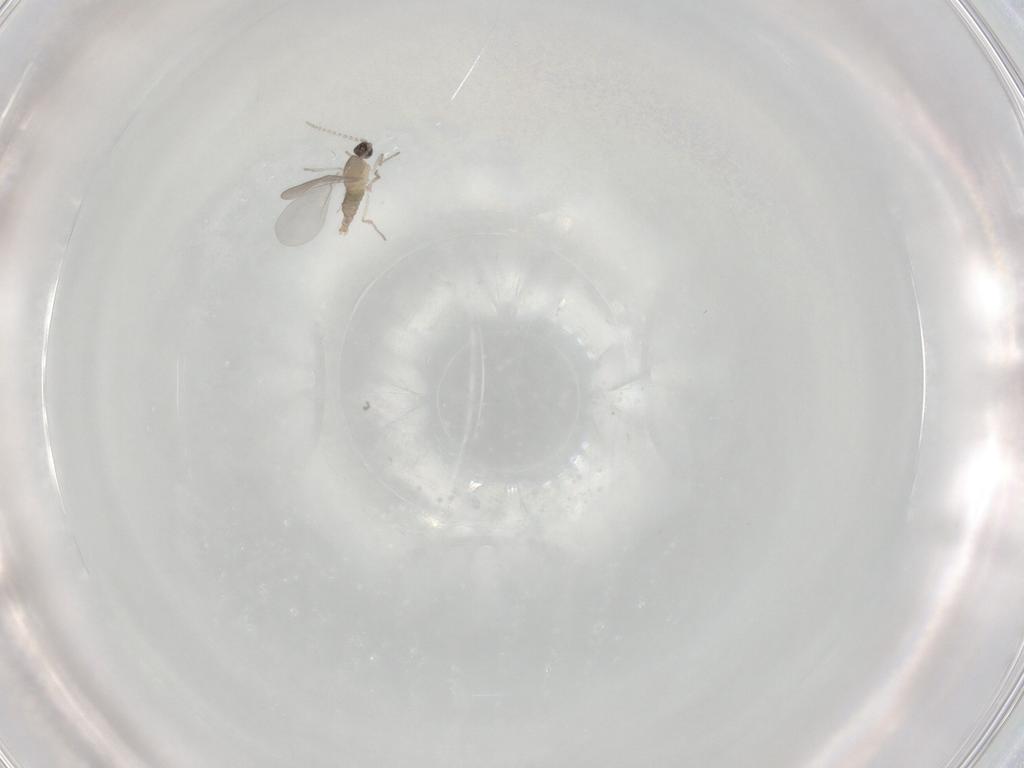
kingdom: Animalia
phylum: Arthropoda
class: Insecta
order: Diptera
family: Cecidomyiidae
